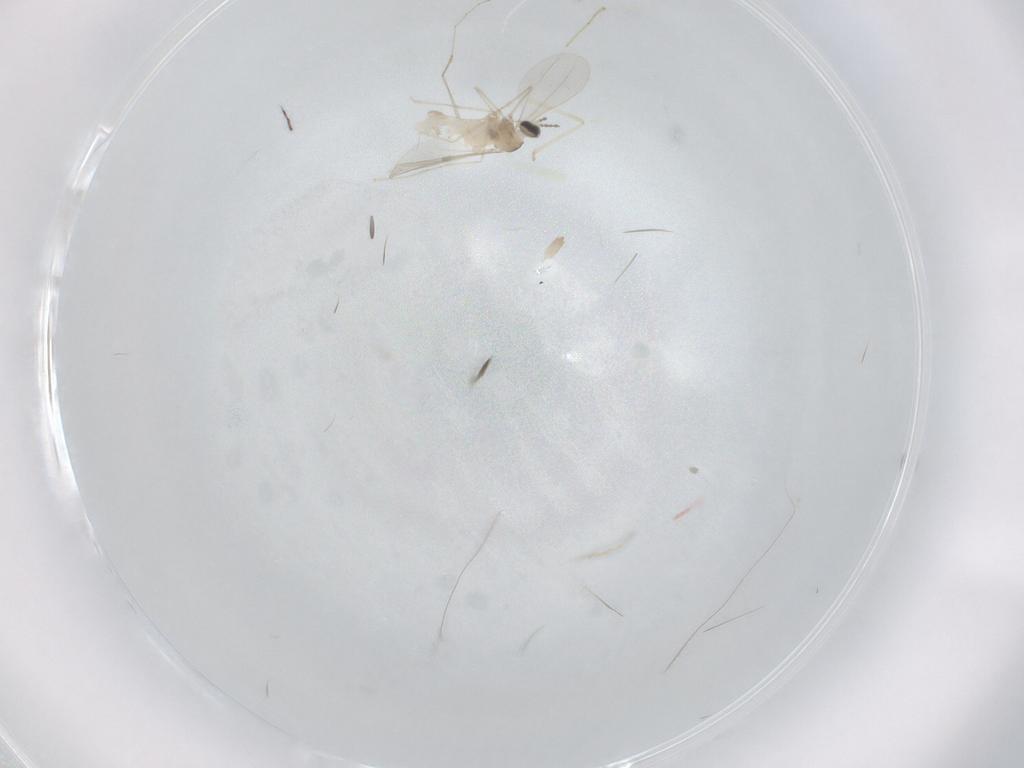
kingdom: Animalia
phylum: Arthropoda
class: Insecta
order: Diptera
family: Cecidomyiidae
